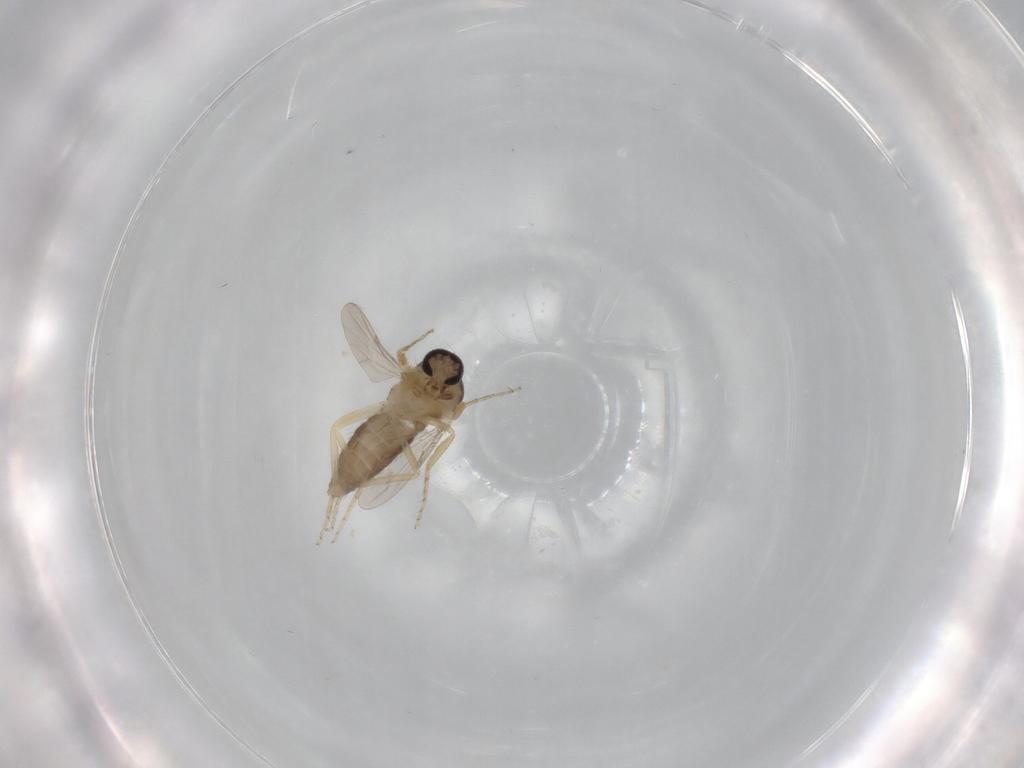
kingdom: Animalia
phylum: Arthropoda
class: Insecta
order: Diptera
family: Ceratopogonidae
